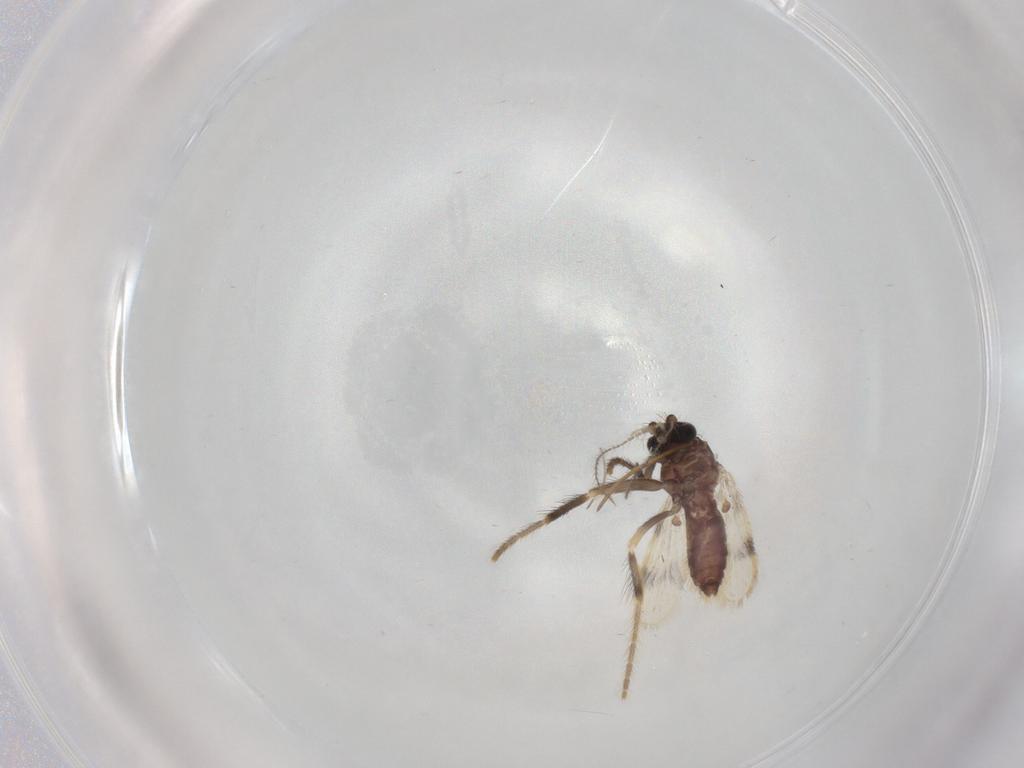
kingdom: Animalia
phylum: Arthropoda
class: Insecta
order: Diptera
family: Corethrellidae
